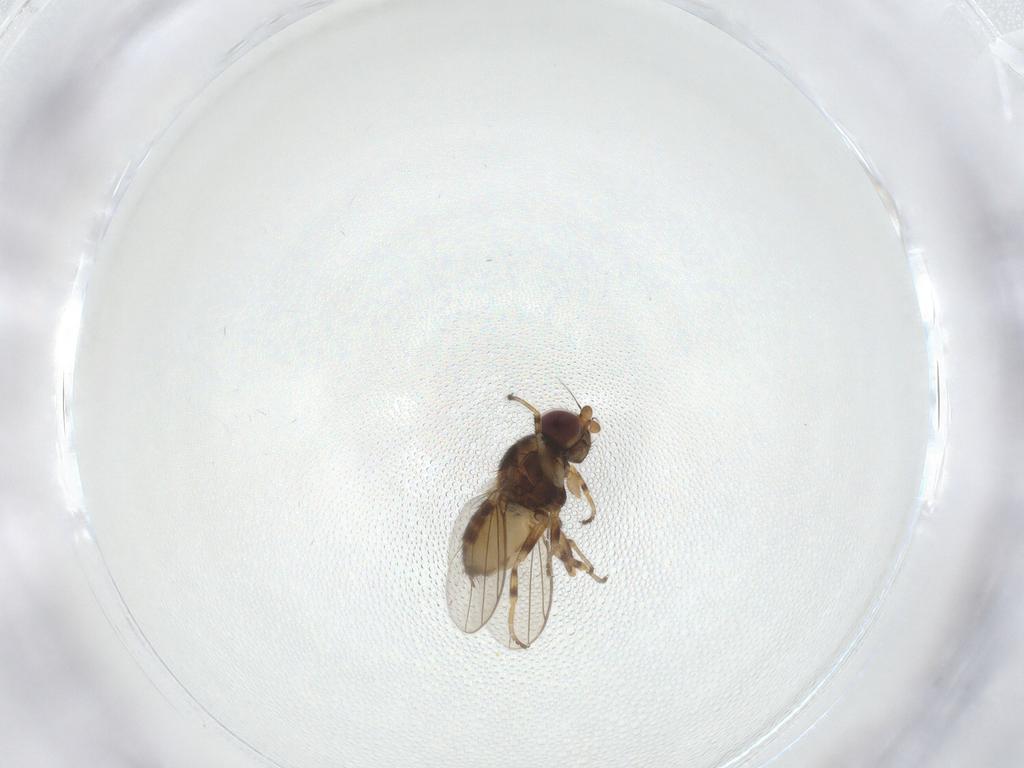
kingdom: Animalia
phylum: Arthropoda
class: Insecta
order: Diptera
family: Chloropidae
